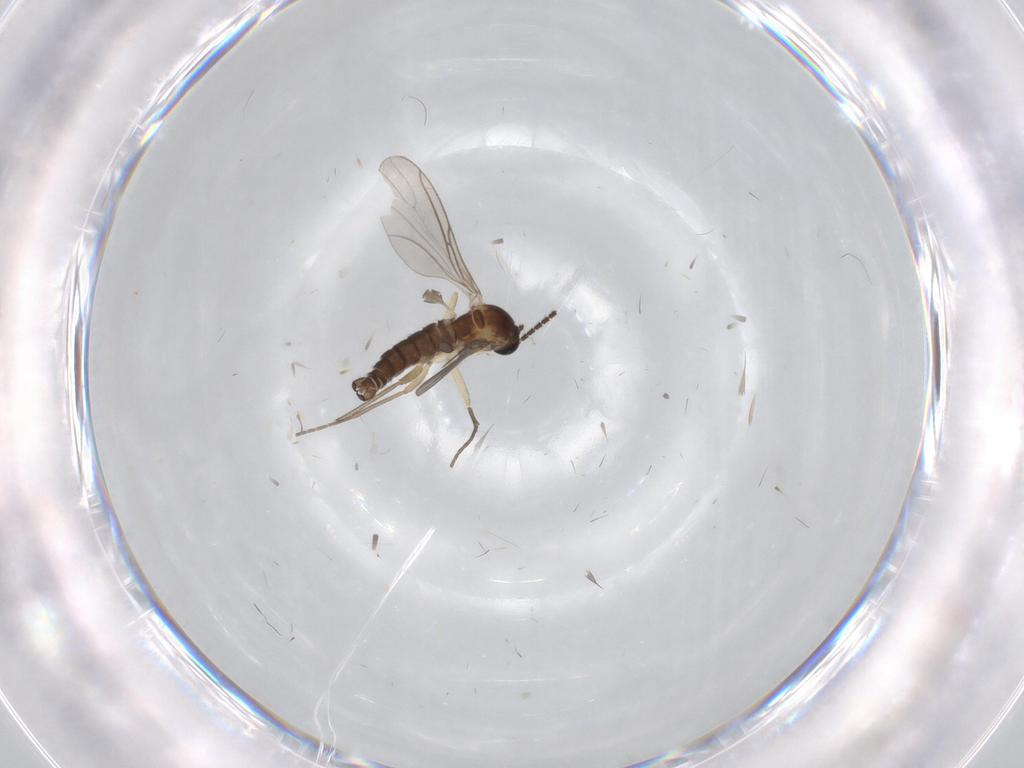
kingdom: Animalia
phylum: Arthropoda
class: Insecta
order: Diptera
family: Sciaridae
